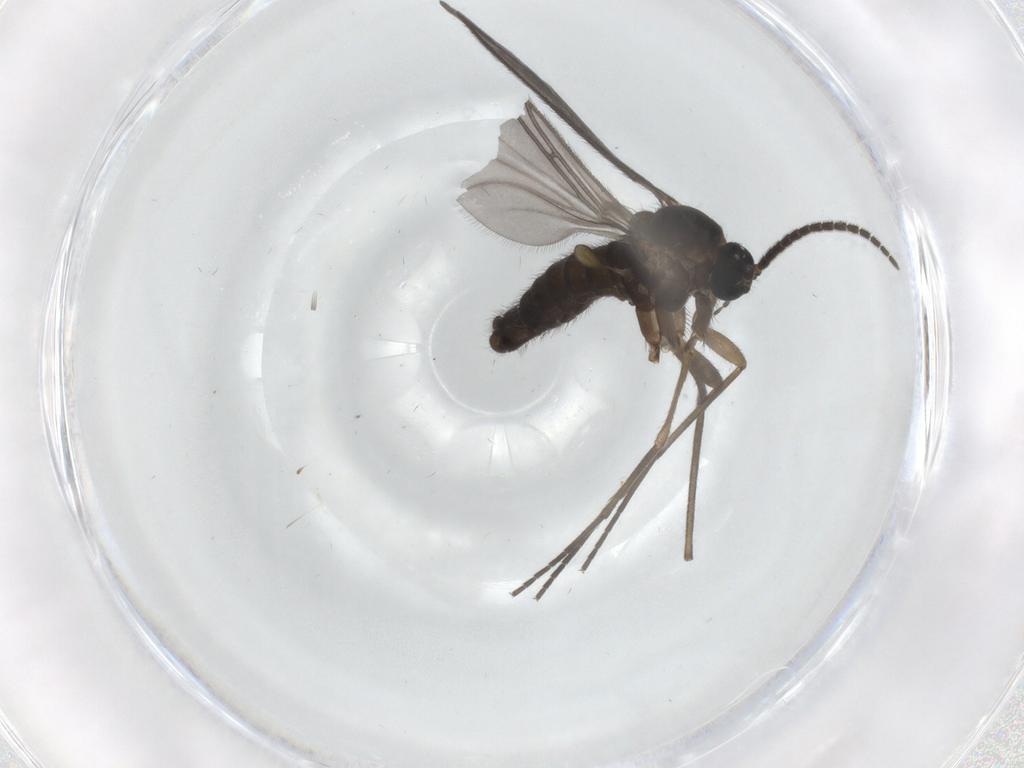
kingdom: Animalia
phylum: Arthropoda
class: Insecta
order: Diptera
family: Sciaridae
